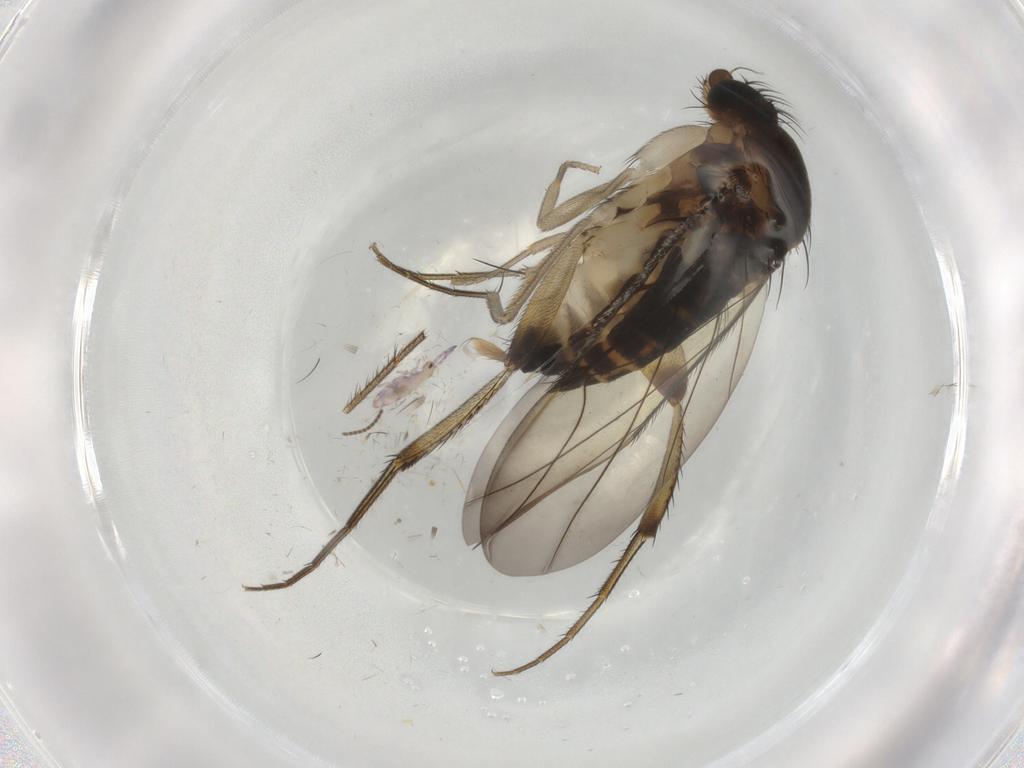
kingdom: Animalia
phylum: Arthropoda
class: Insecta
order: Diptera
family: Phoridae
